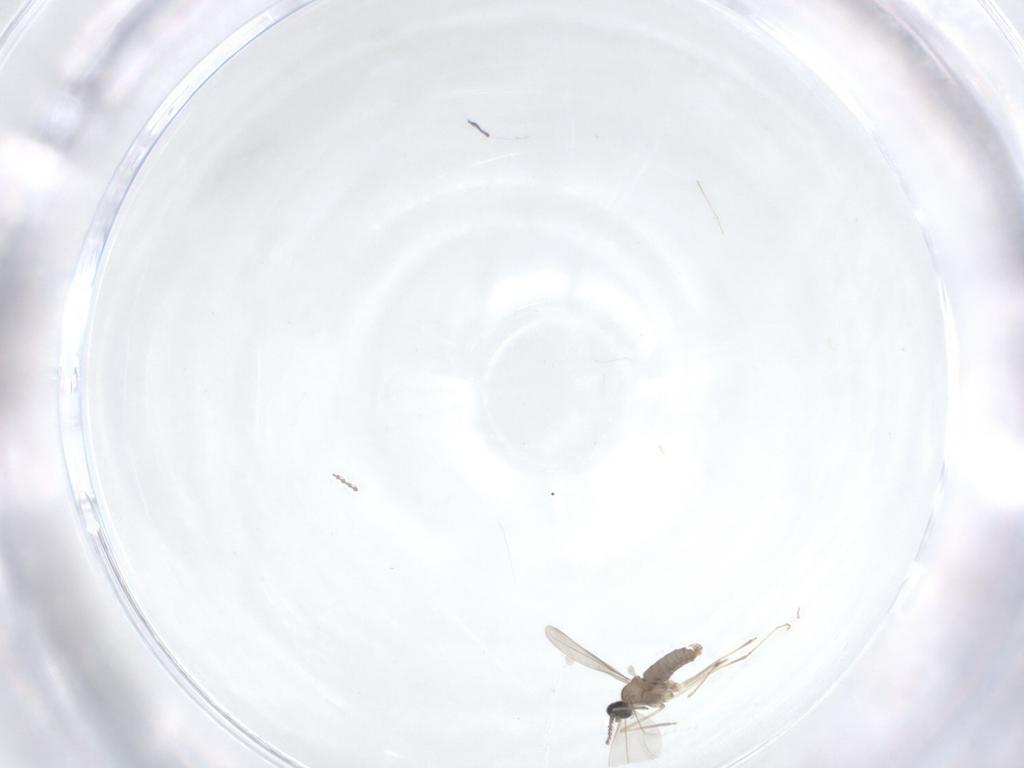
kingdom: Animalia
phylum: Arthropoda
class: Insecta
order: Diptera
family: Cecidomyiidae
